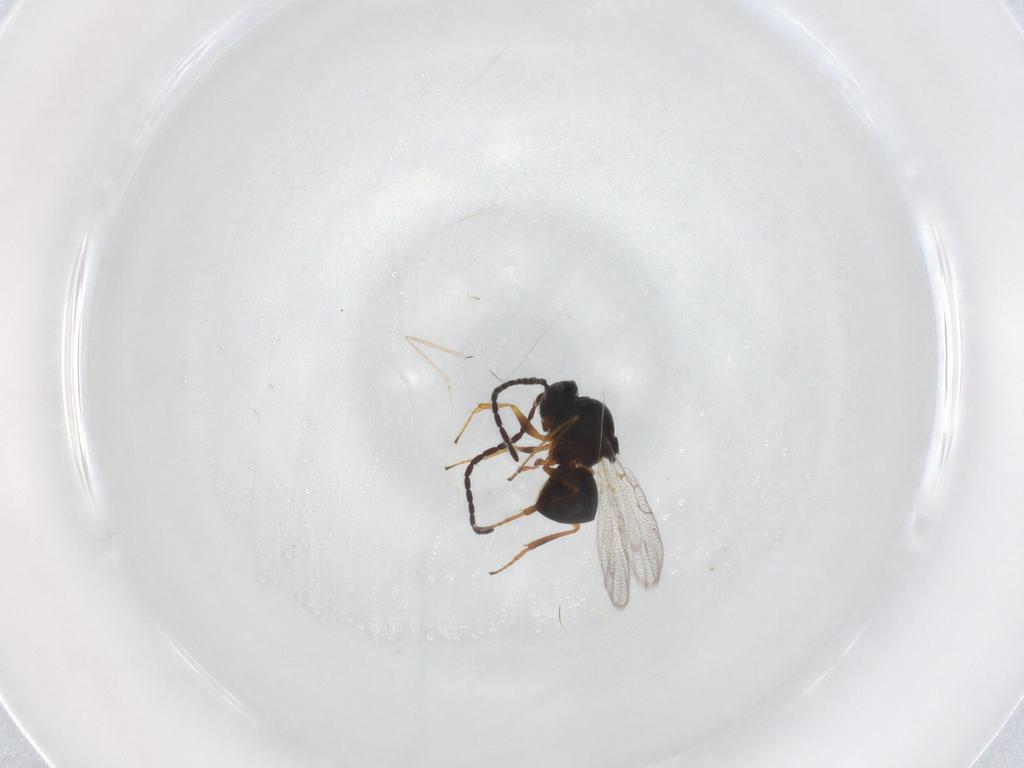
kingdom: Animalia
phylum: Arthropoda
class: Insecta
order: Hymenoptera
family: Figitidae
